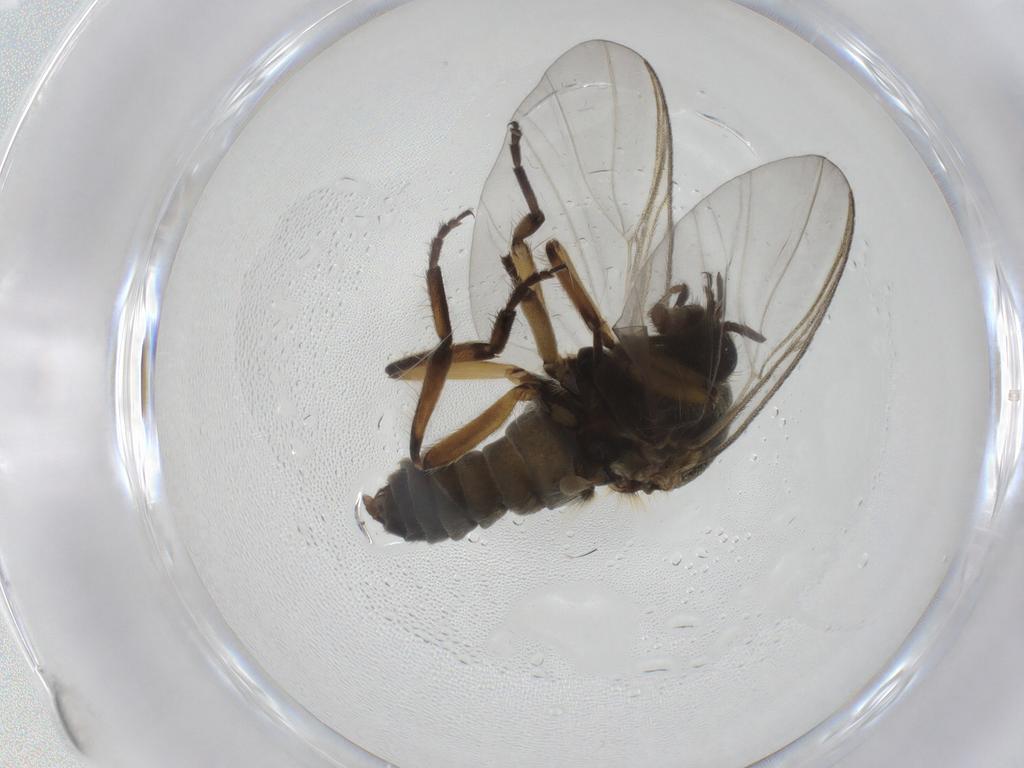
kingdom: Animalia
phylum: Arthropoda
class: Insecta
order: Diptera
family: Simuliidae
